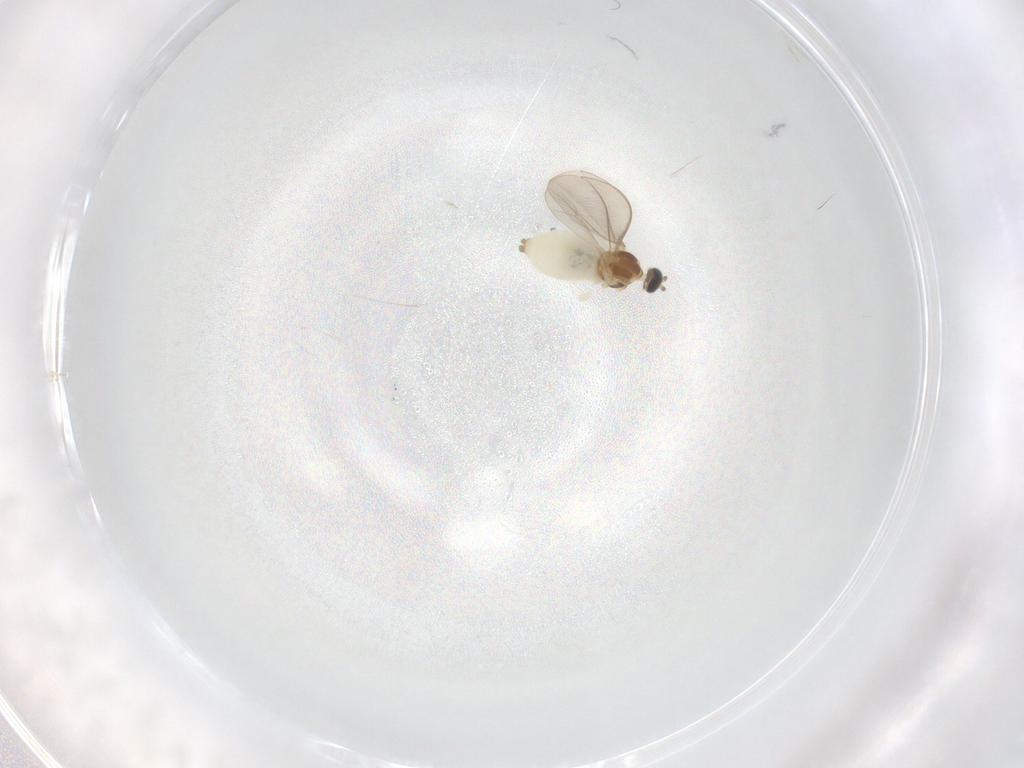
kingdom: Animalia
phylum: Arthropoda
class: Insecta
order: Diptera
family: Cecidomyiidae
